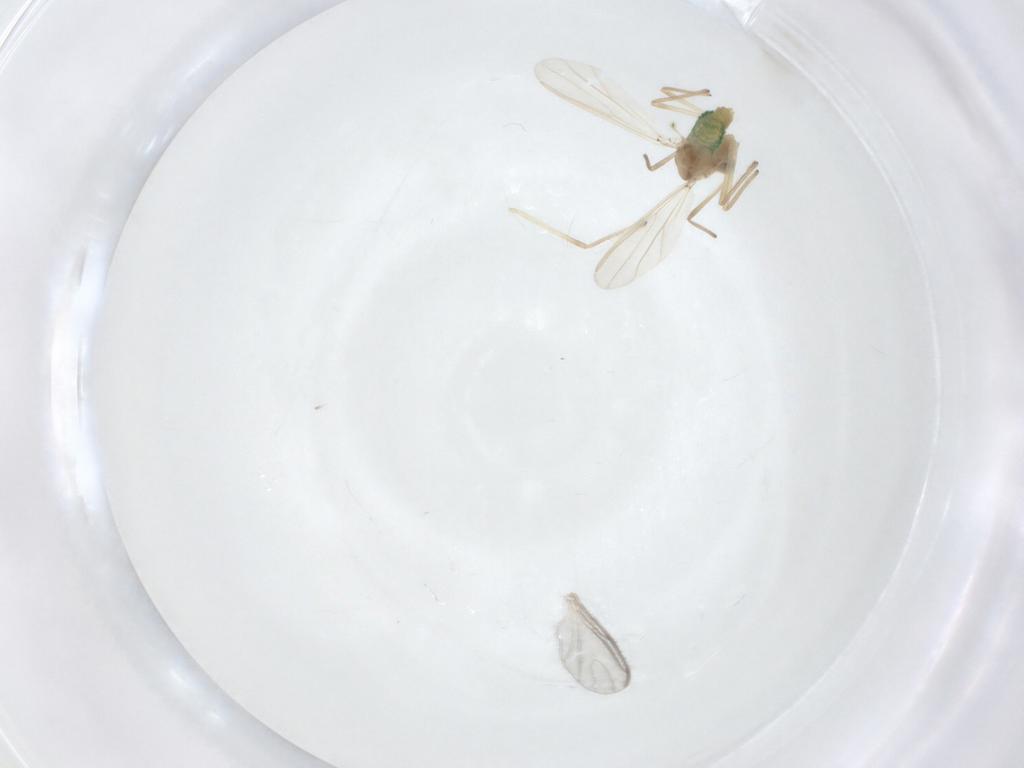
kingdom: Animalia
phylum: Arthropoda
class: Insecta
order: Diptera
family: Chironomidae
